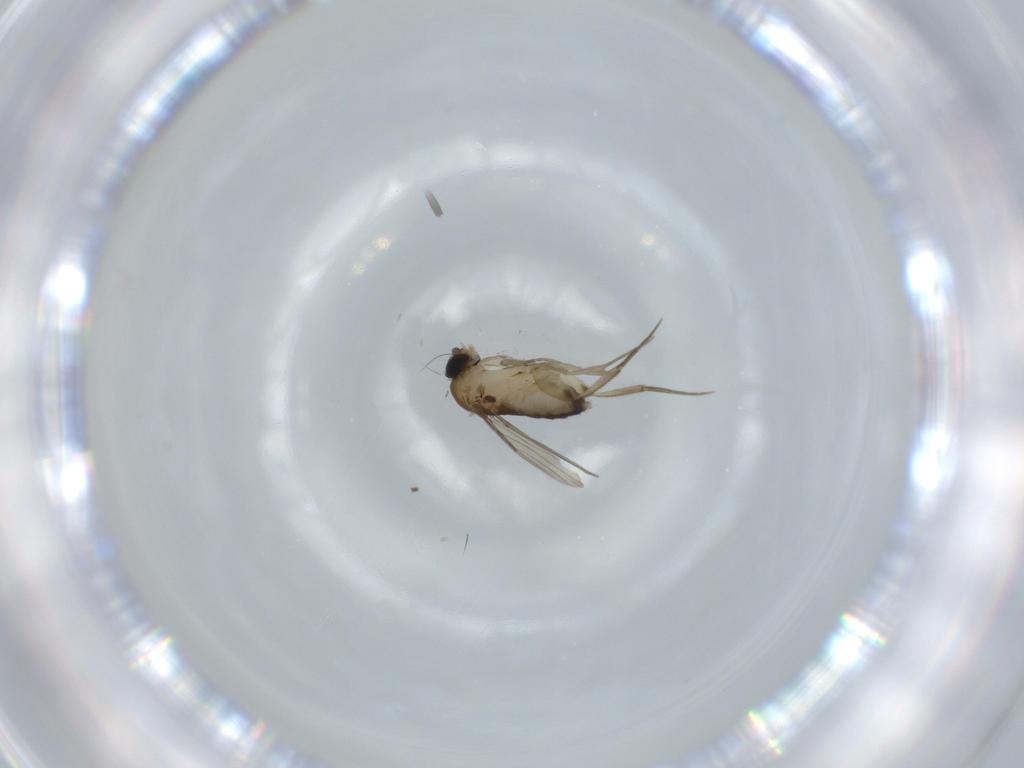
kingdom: Animalia
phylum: Arthropoda
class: Insecta
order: Diptera
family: Phoridae
